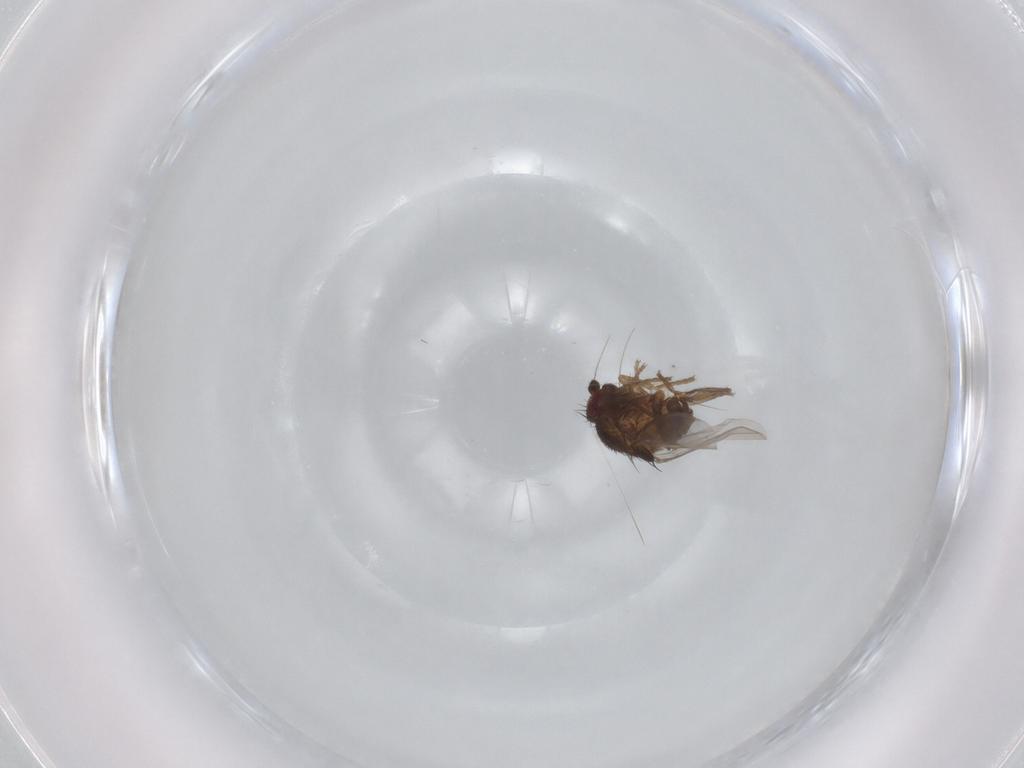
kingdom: Animalia
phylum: Arthropoda
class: Insecta
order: Diptera
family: Sphaeroceridae
